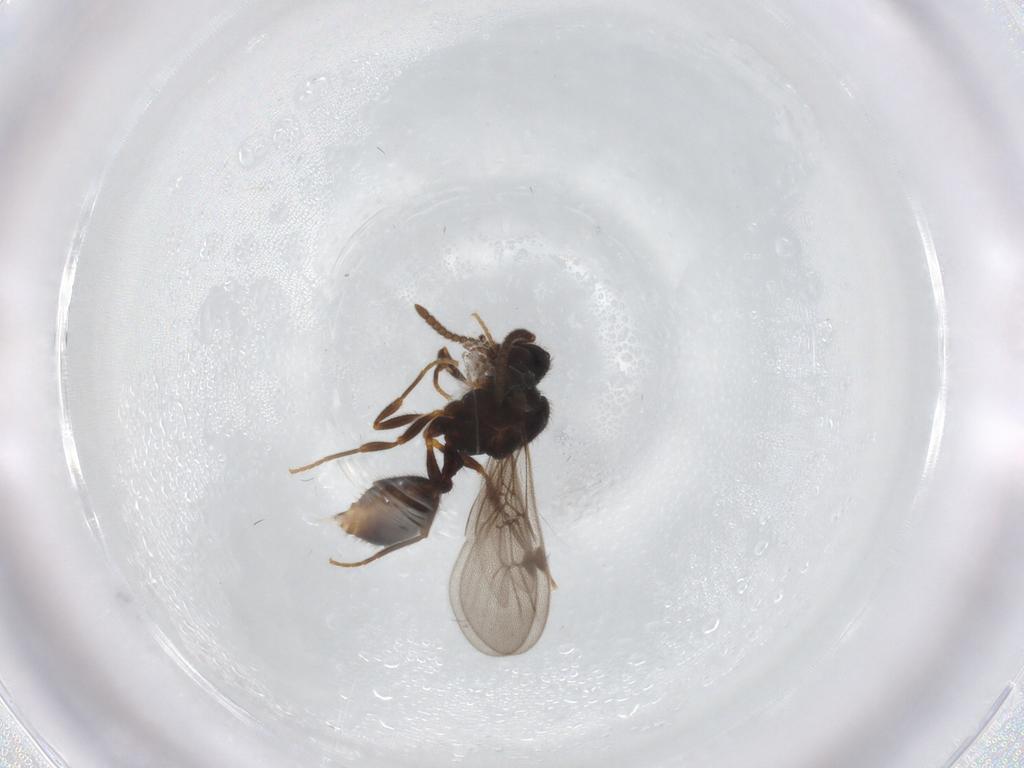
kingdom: Animalia
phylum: Arthropoda
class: Insecta
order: Hymenoptera
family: Formicidae
